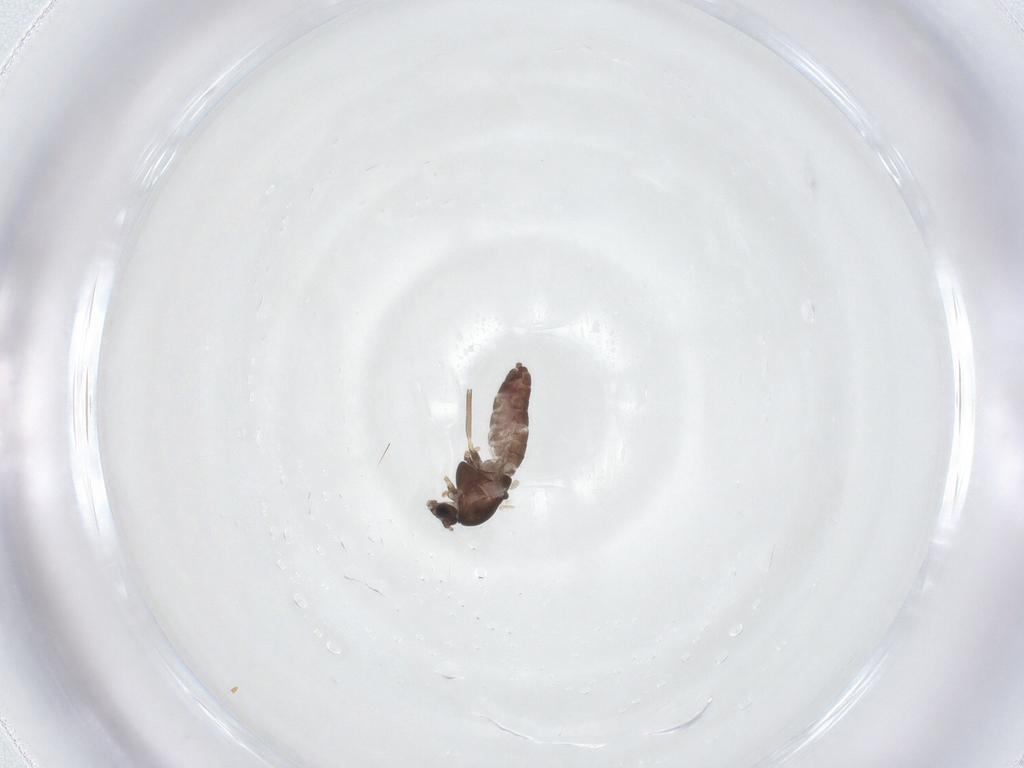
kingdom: Animalia
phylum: Arthropoda
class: Insecta
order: Diptera
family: Chironomidae
